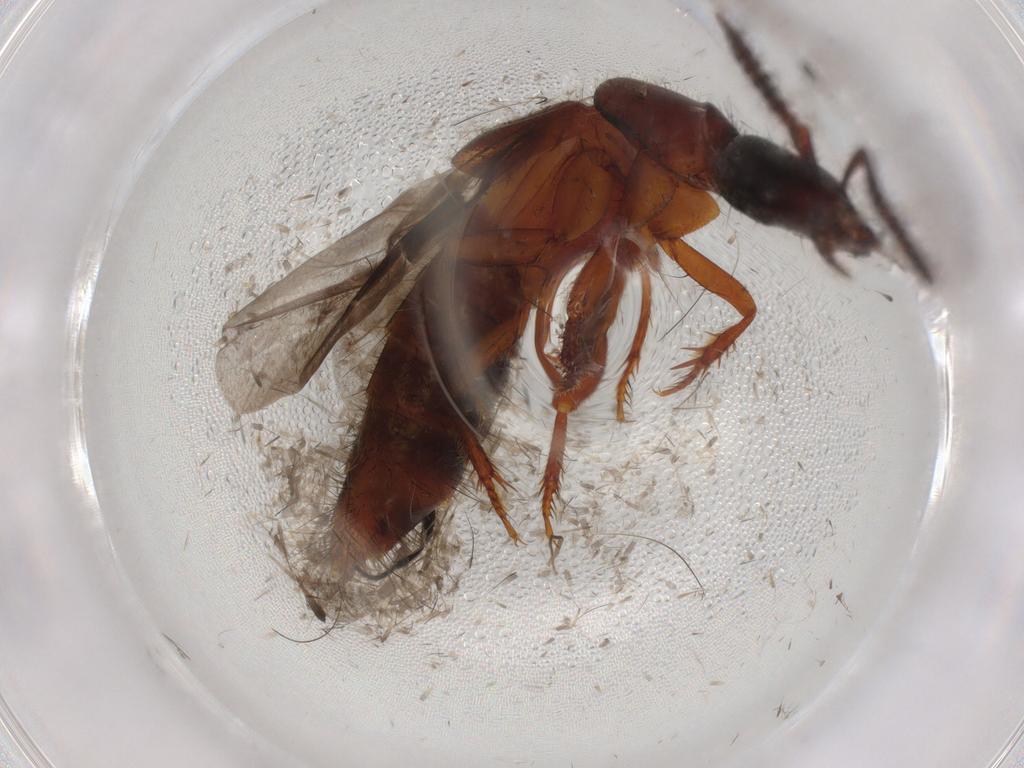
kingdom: Animalia
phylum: Arthropoda
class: Insecta
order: Coleoptera
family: Staphylinidae
